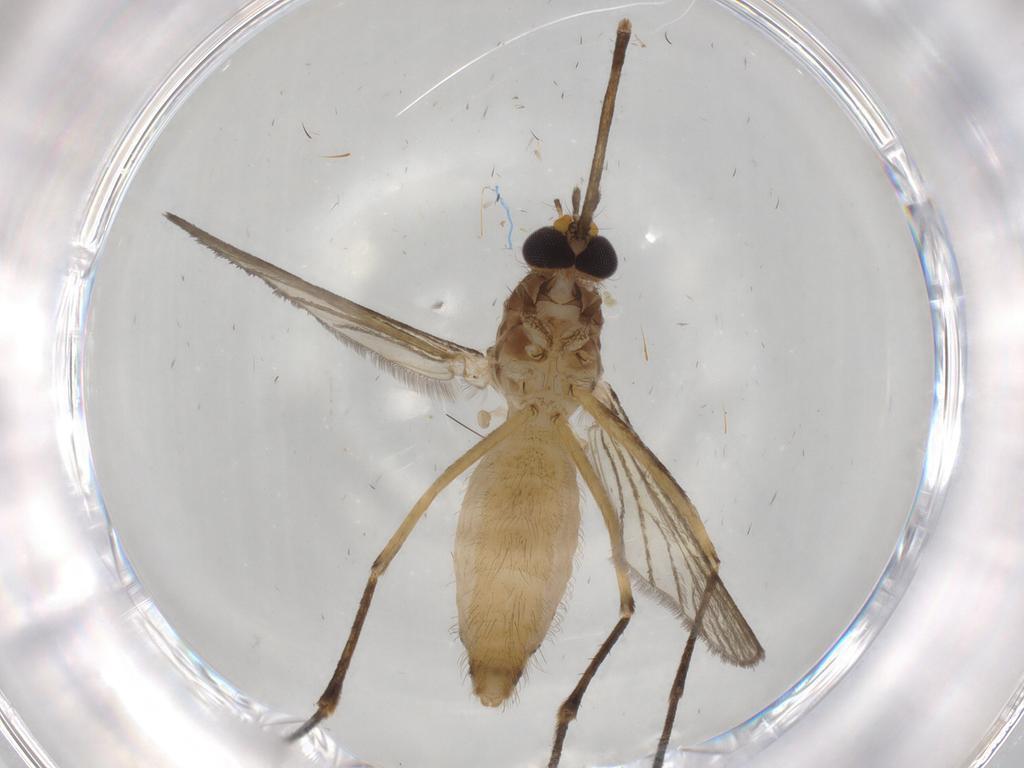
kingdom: Animalia
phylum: Arthropoda
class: Insecta
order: Diptera
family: Culicidae
